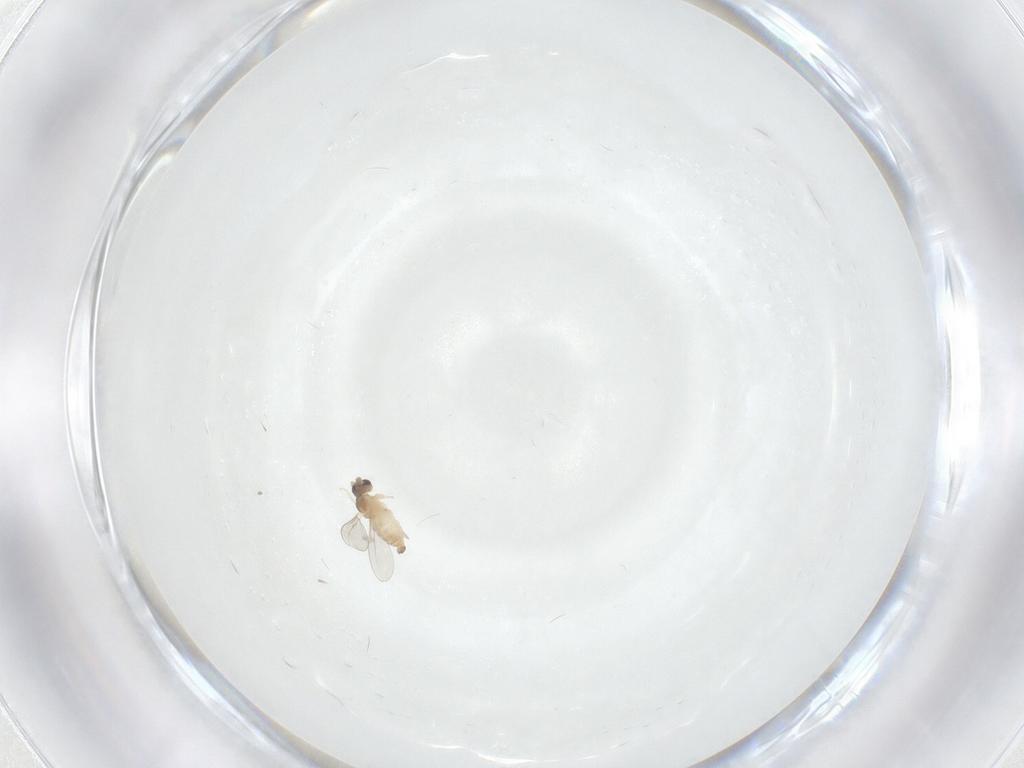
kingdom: Animalia
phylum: Arthropoda
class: Insecta
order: Diptera
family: Cecidomyiidae
